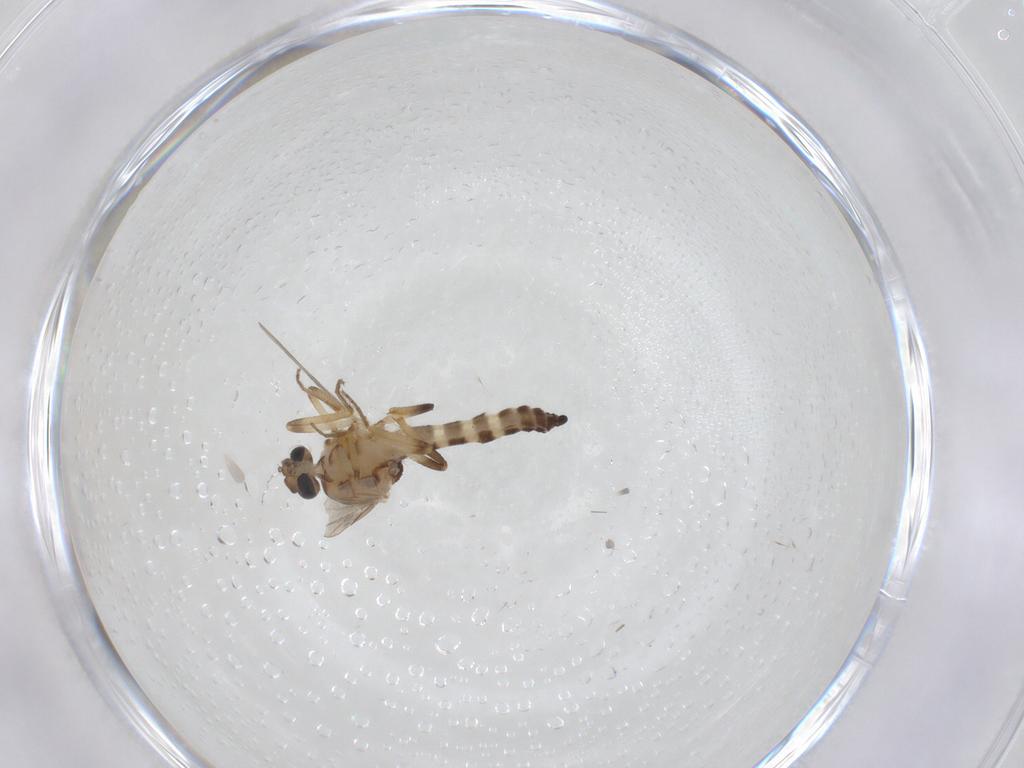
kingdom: Animalia
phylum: Arthropoda
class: Insecta
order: Diptera
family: Ceratopogonidae
